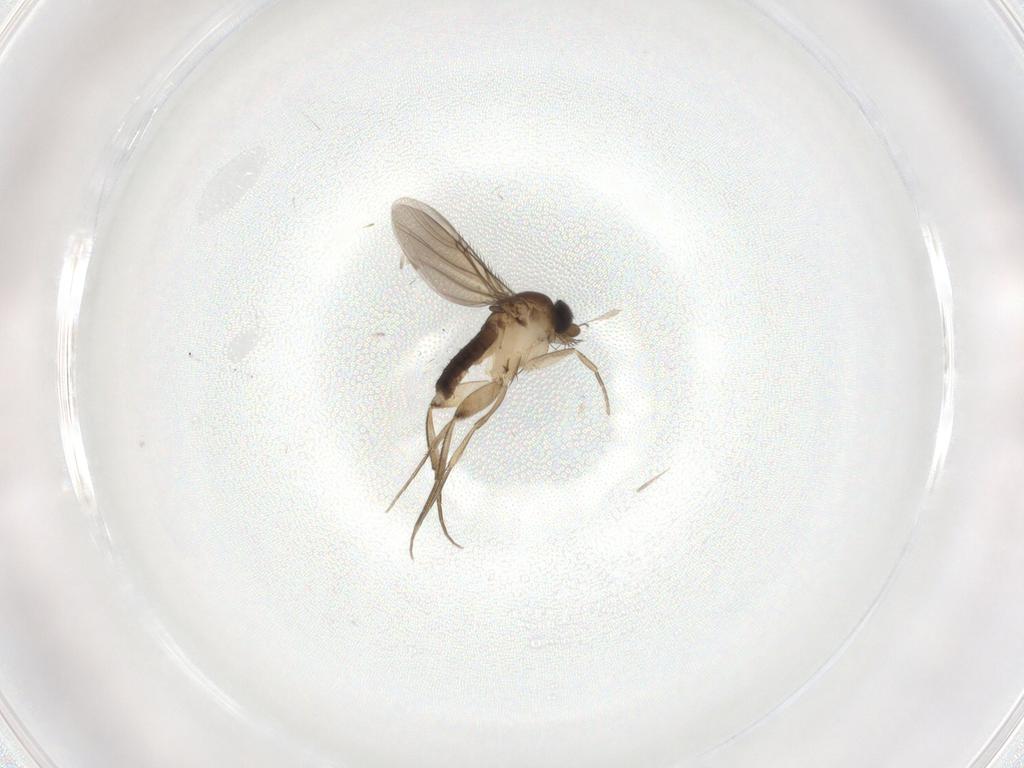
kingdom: Animalia
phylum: Arthropoda
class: Insecta
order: Diptera
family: Phoridae
